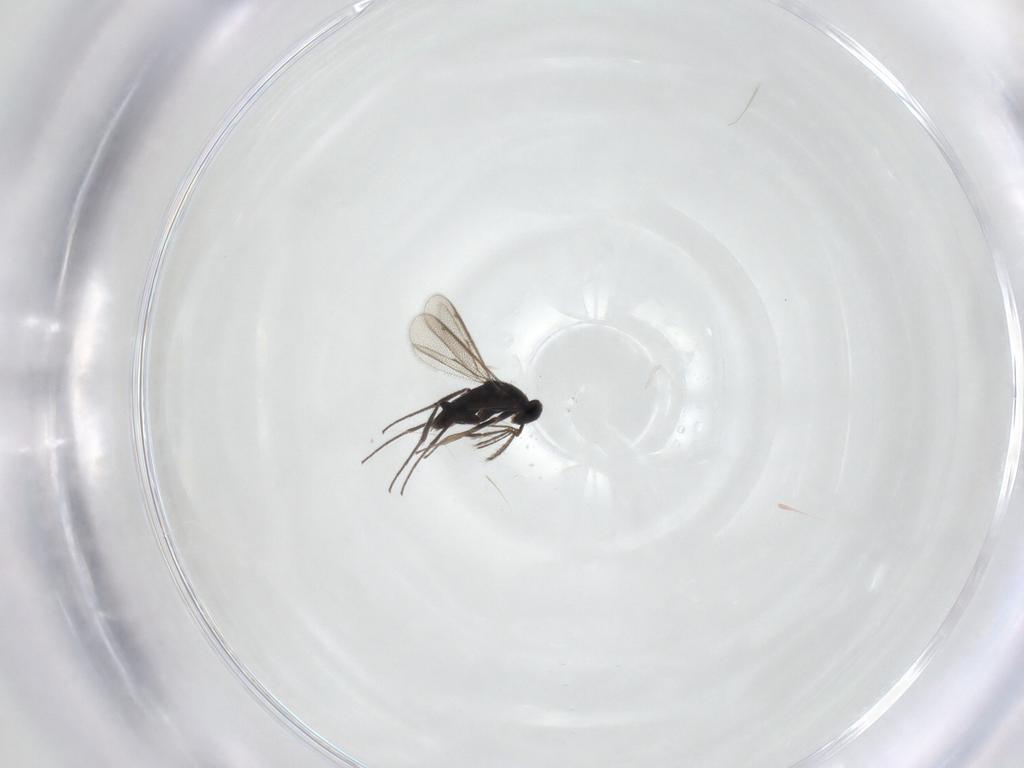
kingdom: Animalia
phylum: Arthropoda
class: Insecta
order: Hymenoptera
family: Eulophidae
